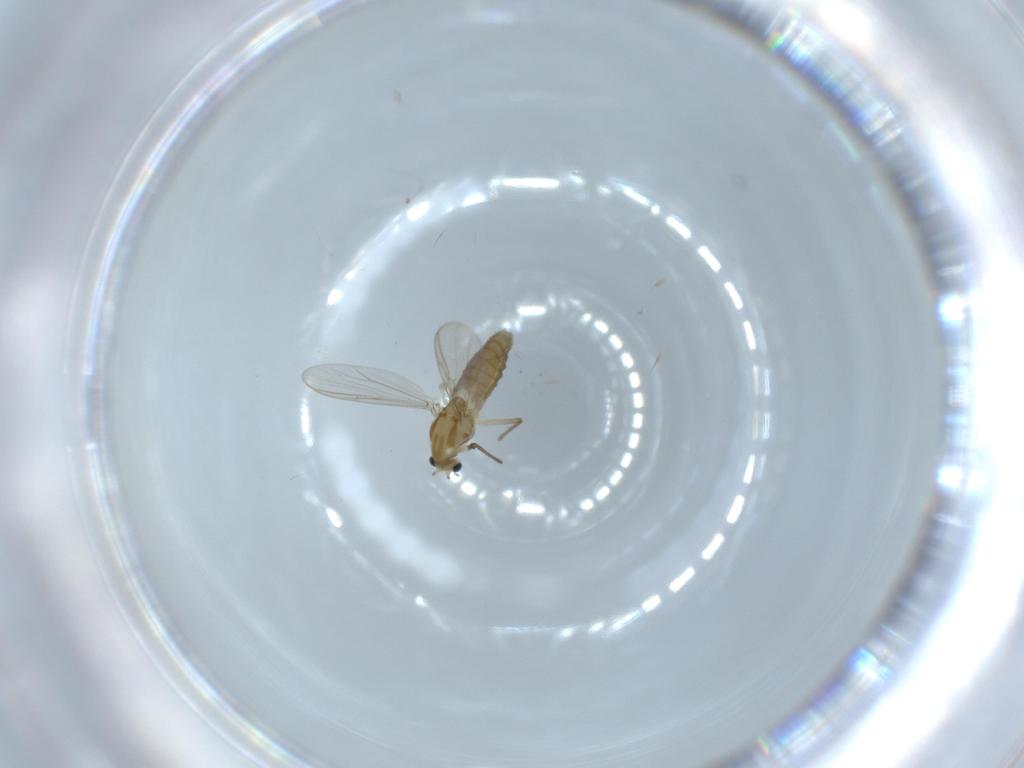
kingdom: Animalia
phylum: Arthropoda
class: Insecta
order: Diptera
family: Chironomidae
